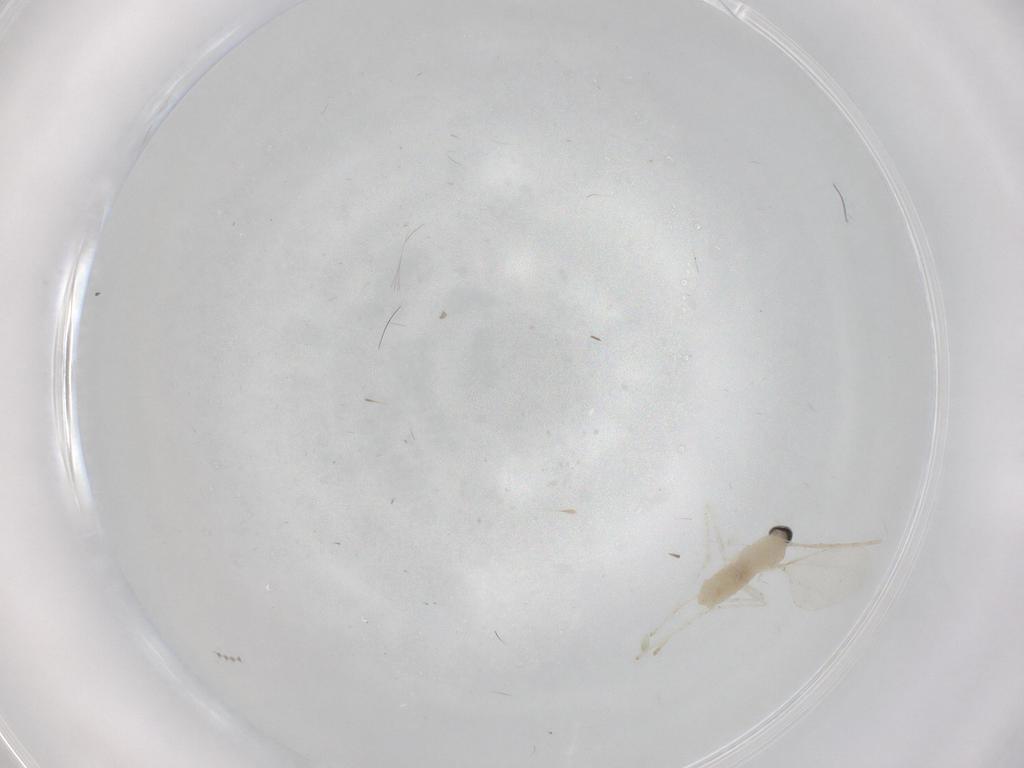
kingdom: Animalia
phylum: Arthropoda
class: Insecta
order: Diptera
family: Cecidomyiidae
